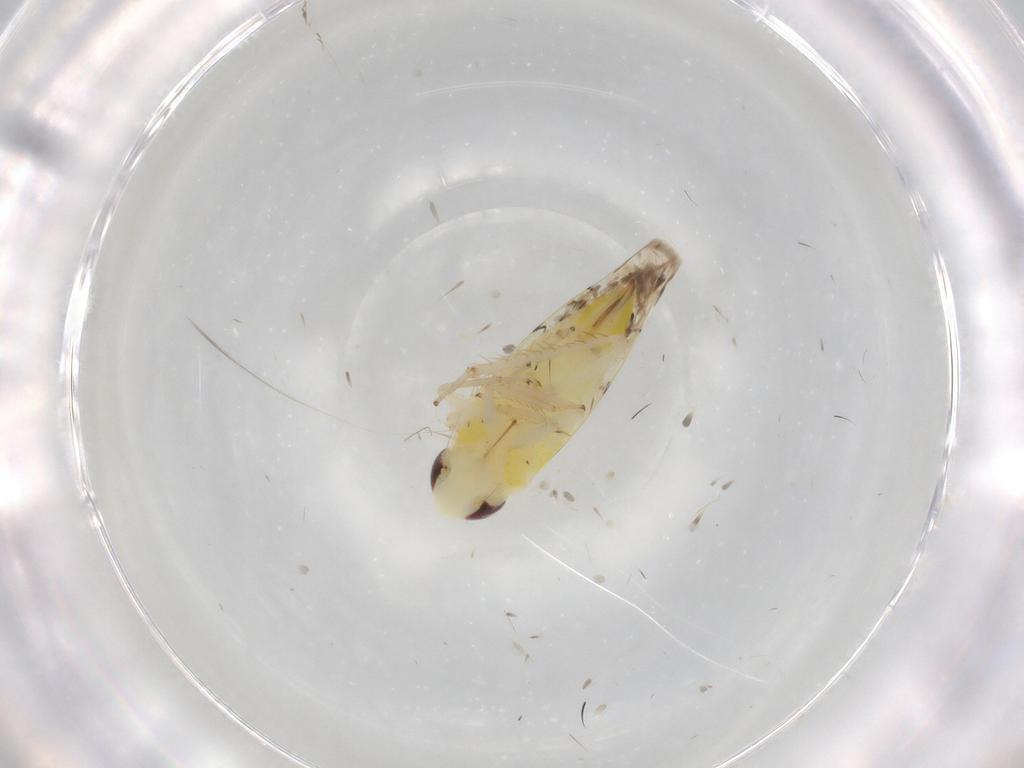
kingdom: Animalia
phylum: Arthropoda
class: Insecta
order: Hemiptera
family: Cicadellidae
